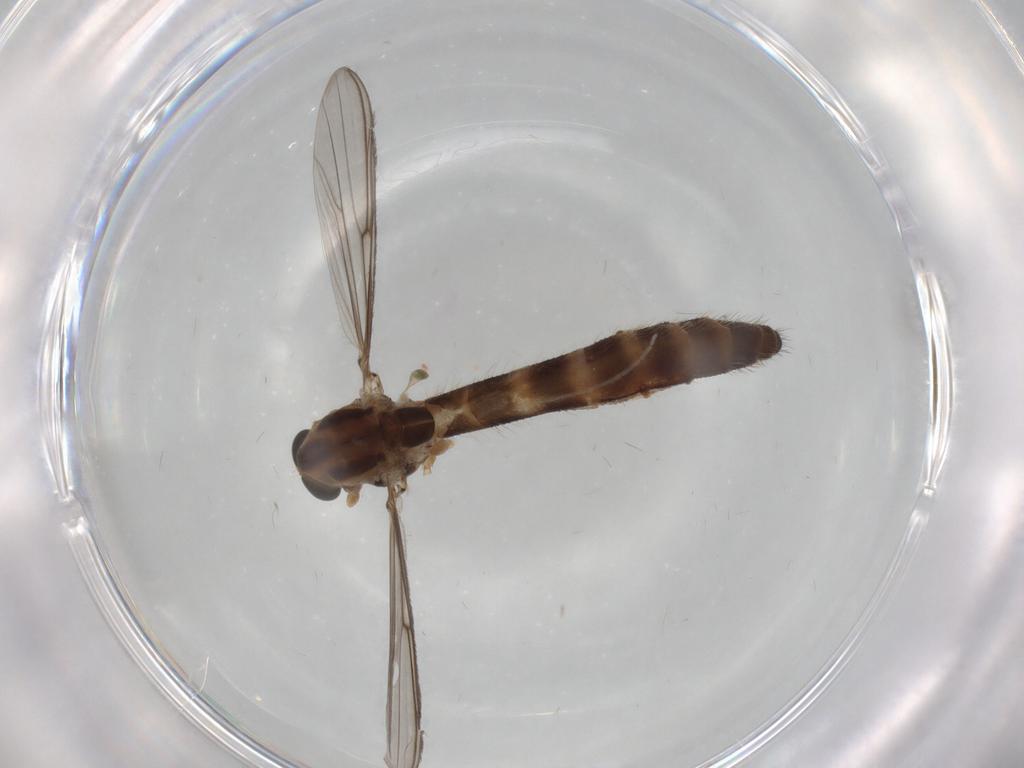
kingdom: Animalia
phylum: Arthropoda
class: Insecta
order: Diptera
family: Chironomidae
